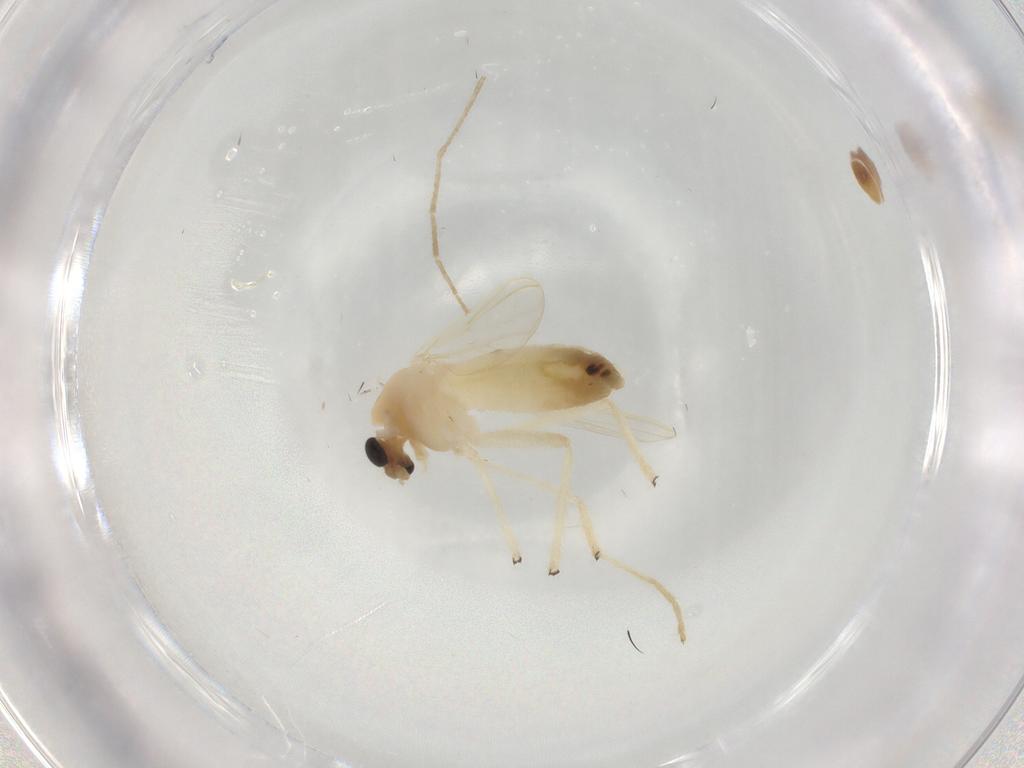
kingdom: Animalia
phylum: Arthropoda
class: Insecta
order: Diptera
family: Chironomidae
